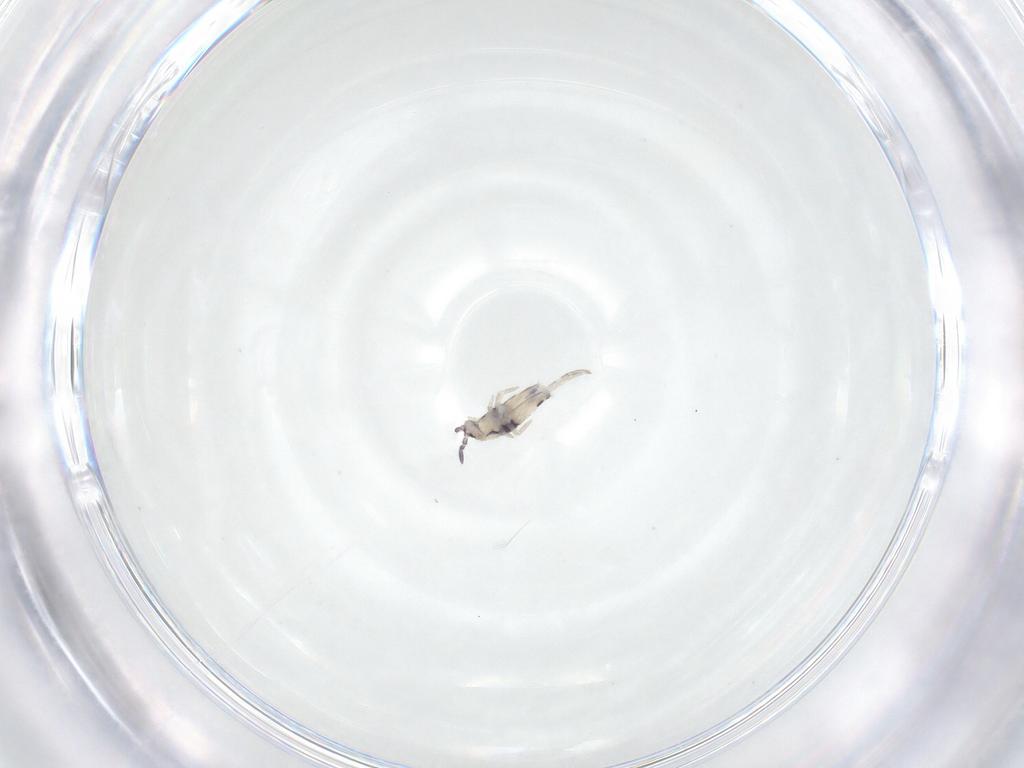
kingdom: Animalia
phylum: Arthropoda
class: Collembola
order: Entomobryomorpha
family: Entomobryidae
